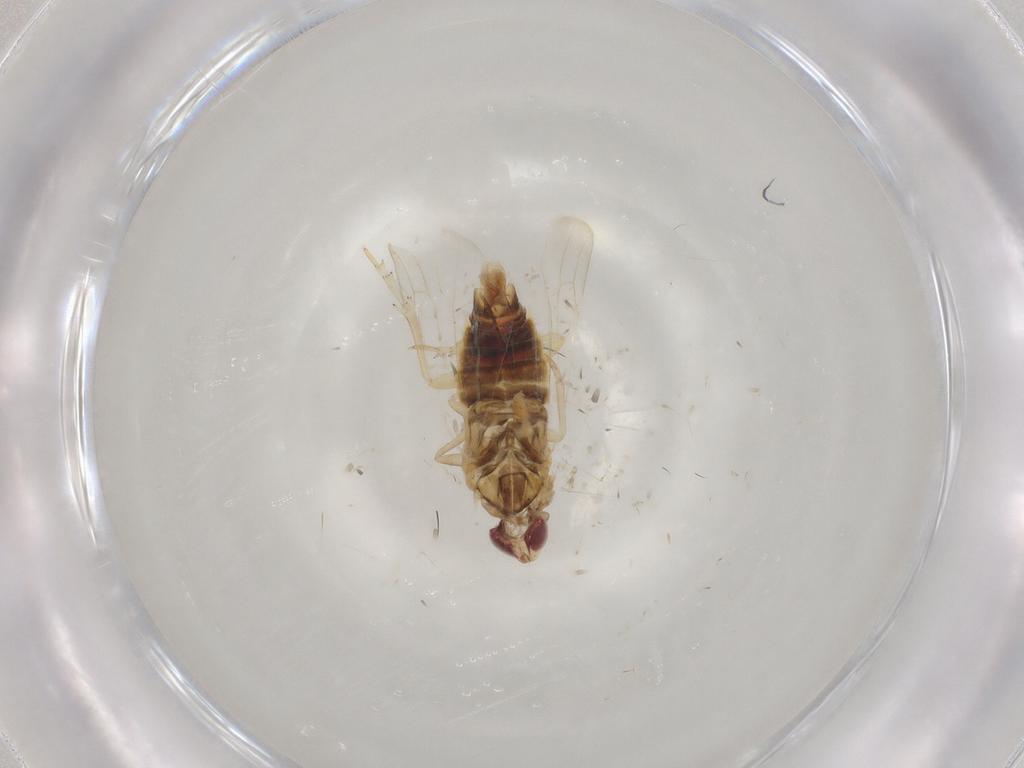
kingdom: Animalia
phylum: Arthropoda
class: Insecta
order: Hemiptera
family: Cixiidae
